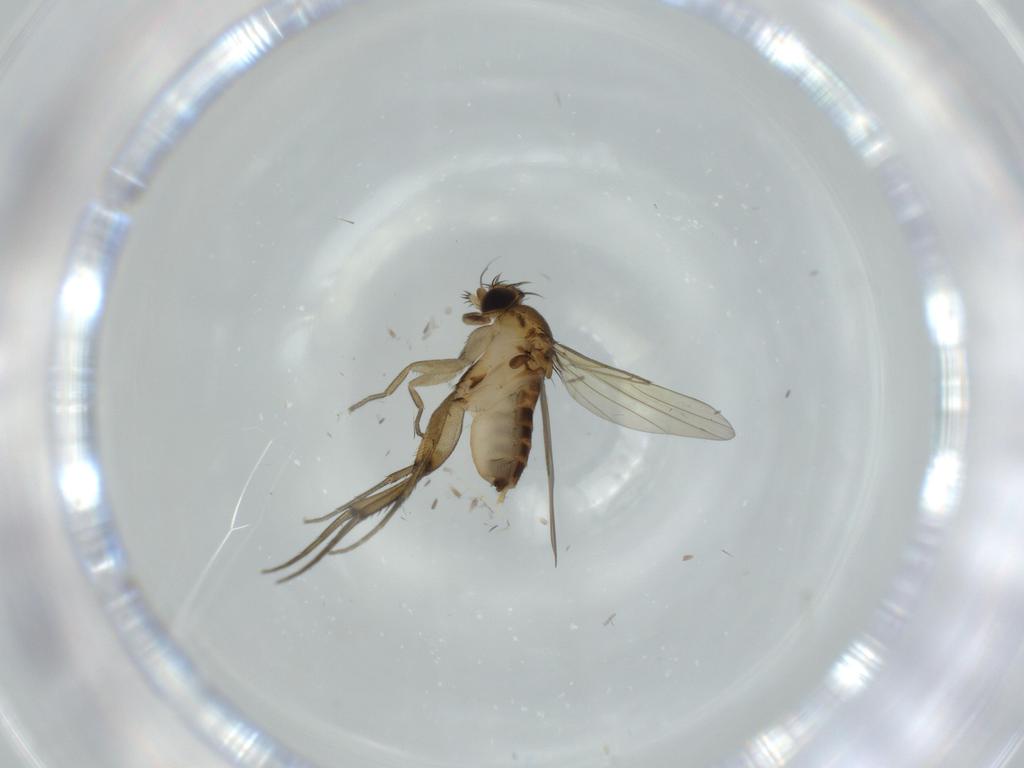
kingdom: Animalia
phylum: Arthropoda
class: Insecta
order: Diptera
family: Phoridae
